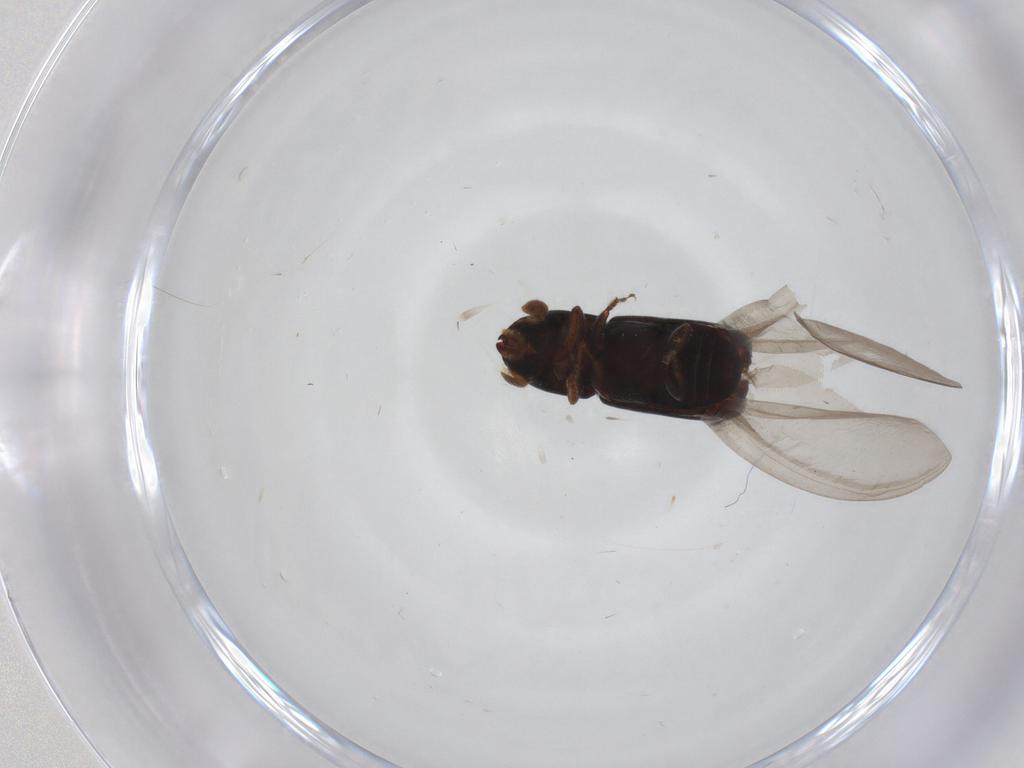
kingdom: Animalia
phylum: Arthropoda
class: Insecta
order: Coleoptera
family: Curculionidae
